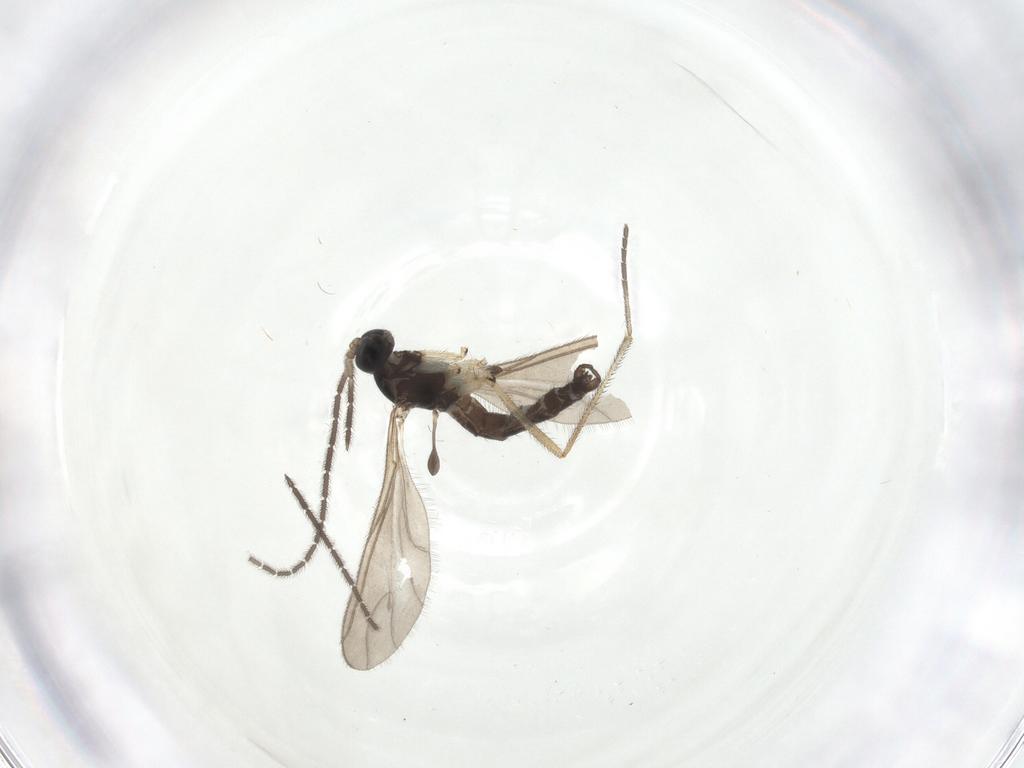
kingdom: Animalia
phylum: Arthropoda
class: Insecta
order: Diptera
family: Sciaridae
